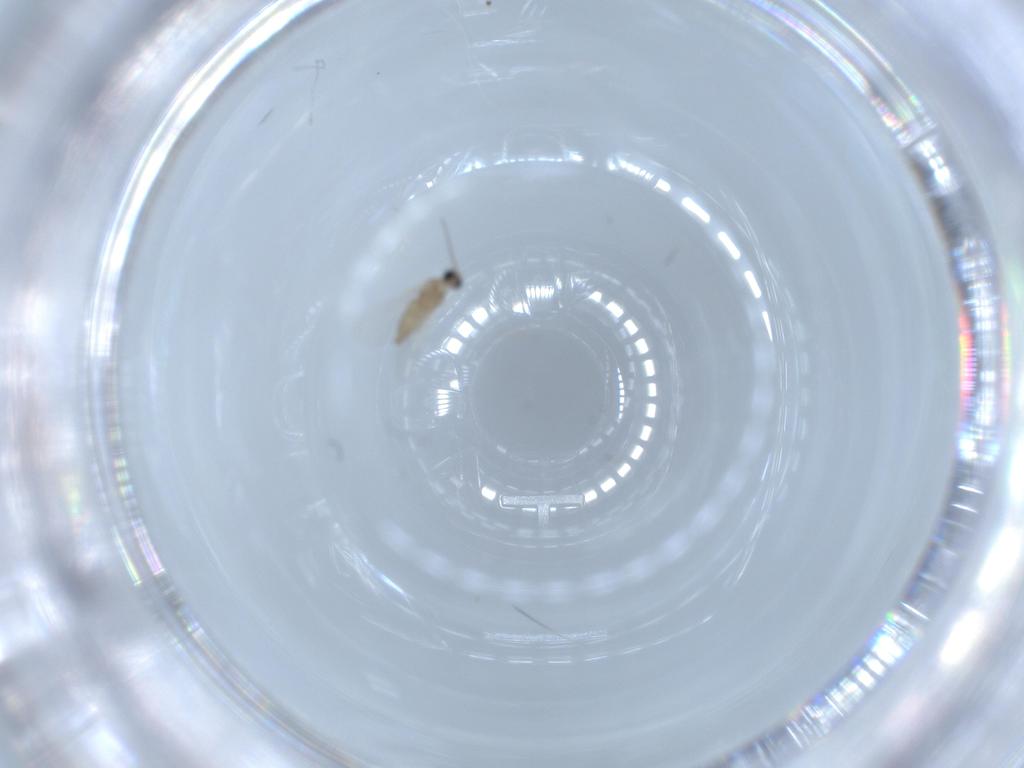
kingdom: Animalia
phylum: Arthropoda
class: Insecta
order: Diptera
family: Cecidomyiidae
